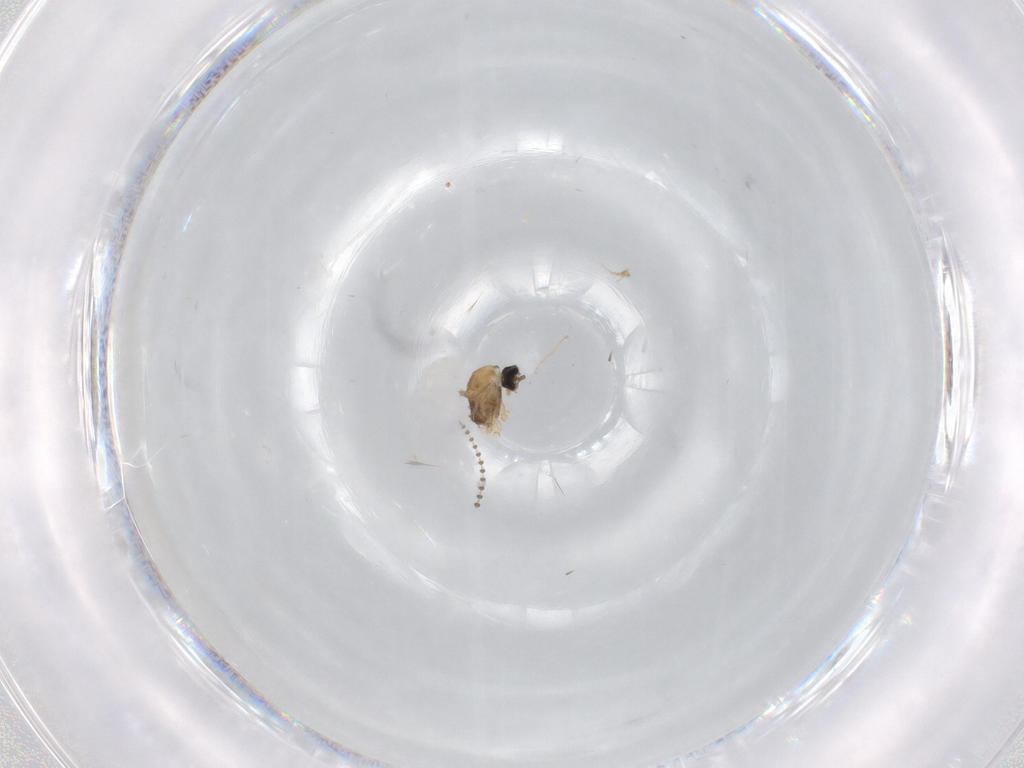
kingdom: Animalia
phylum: Arthropoda
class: Insecta
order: Diptera
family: Cecidomyiidae
